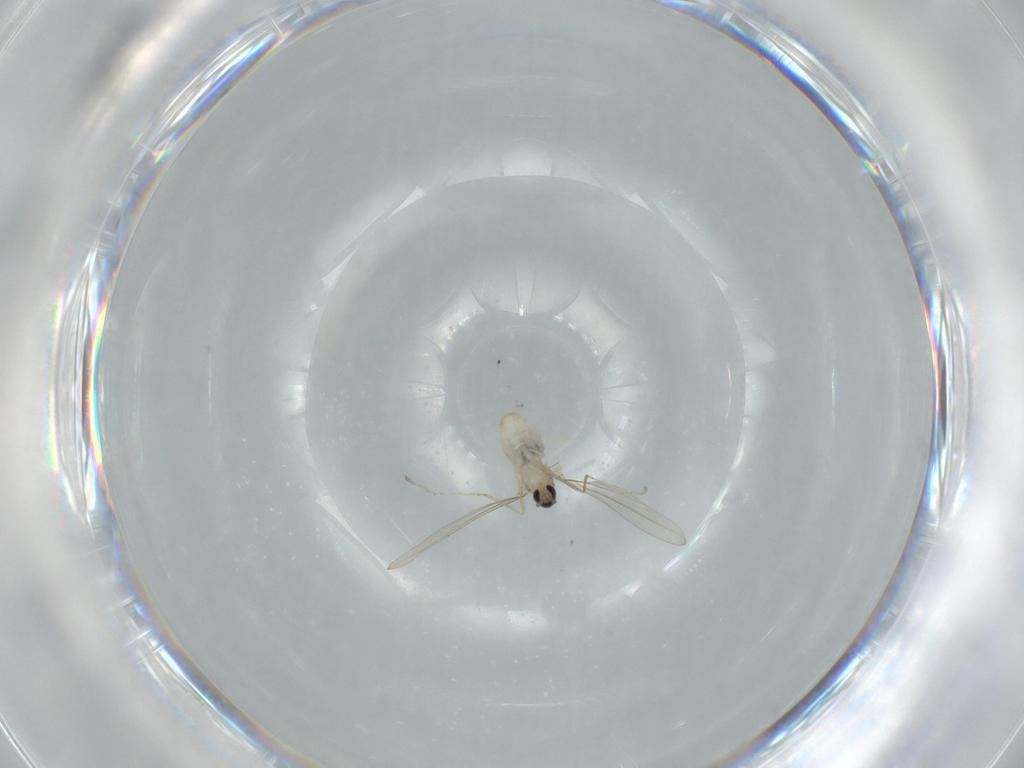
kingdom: Animalia
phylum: Arthropoda
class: Insecta
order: Diptera
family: Cecidomyiidae
